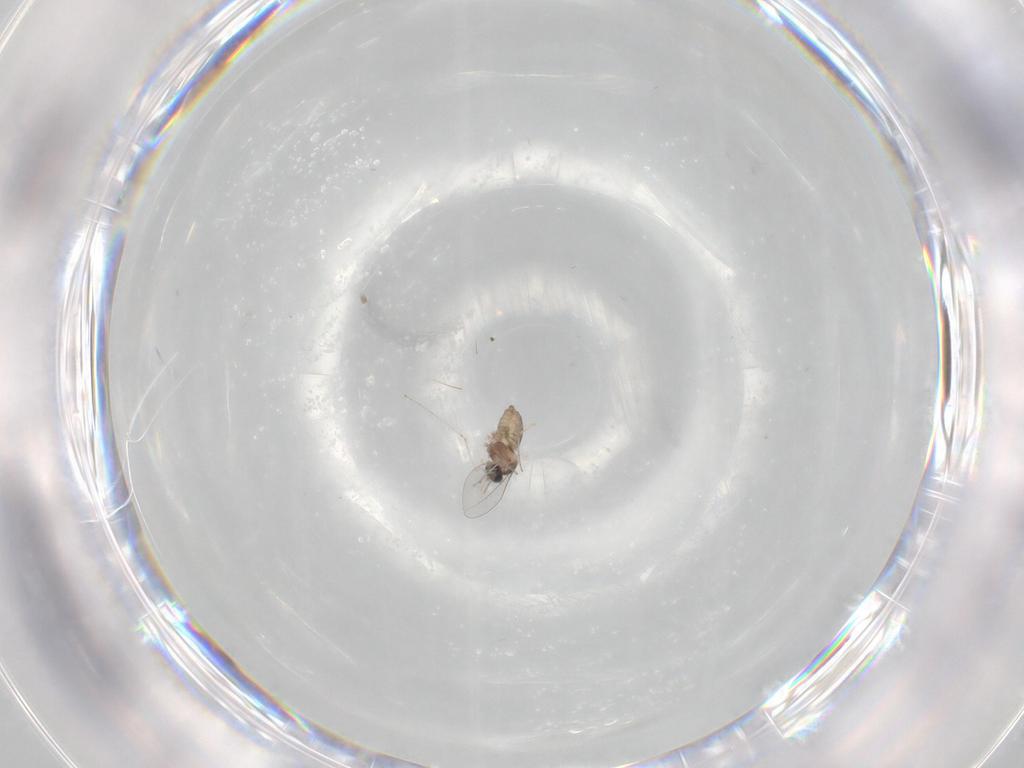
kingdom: Animalia
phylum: Arthropoda
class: Insecta
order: Diptera
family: Cecidomyiidae
